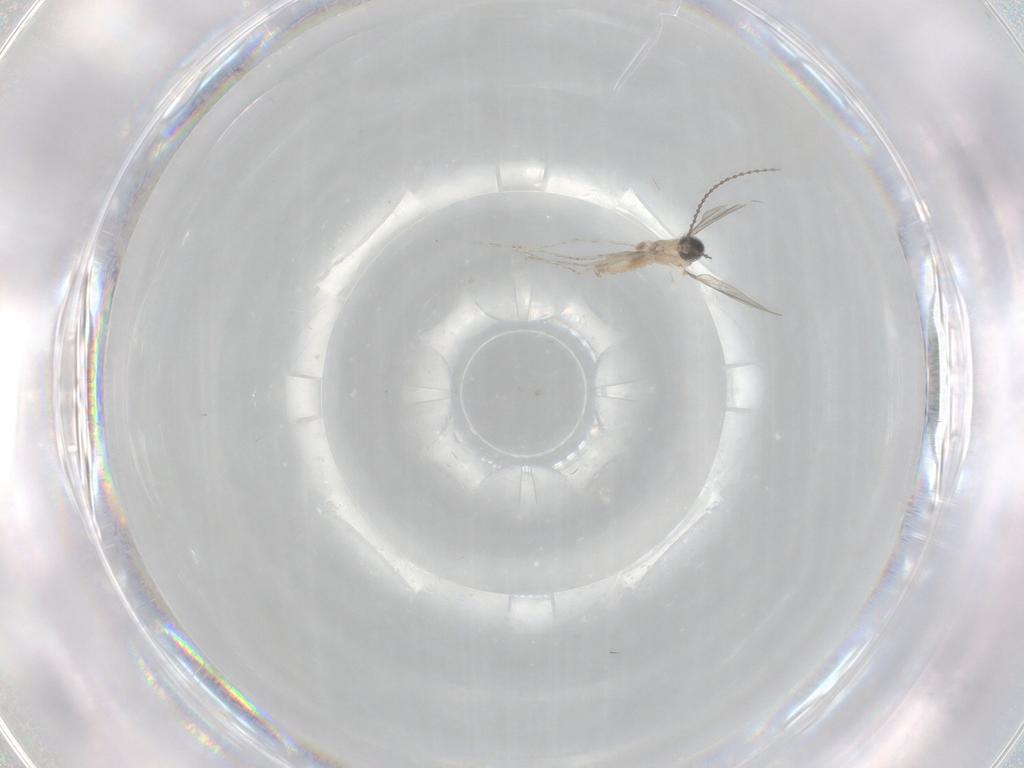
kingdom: Animalia
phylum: Arthropoda
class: Insecta
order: Diptera
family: Cecidomyiidae
